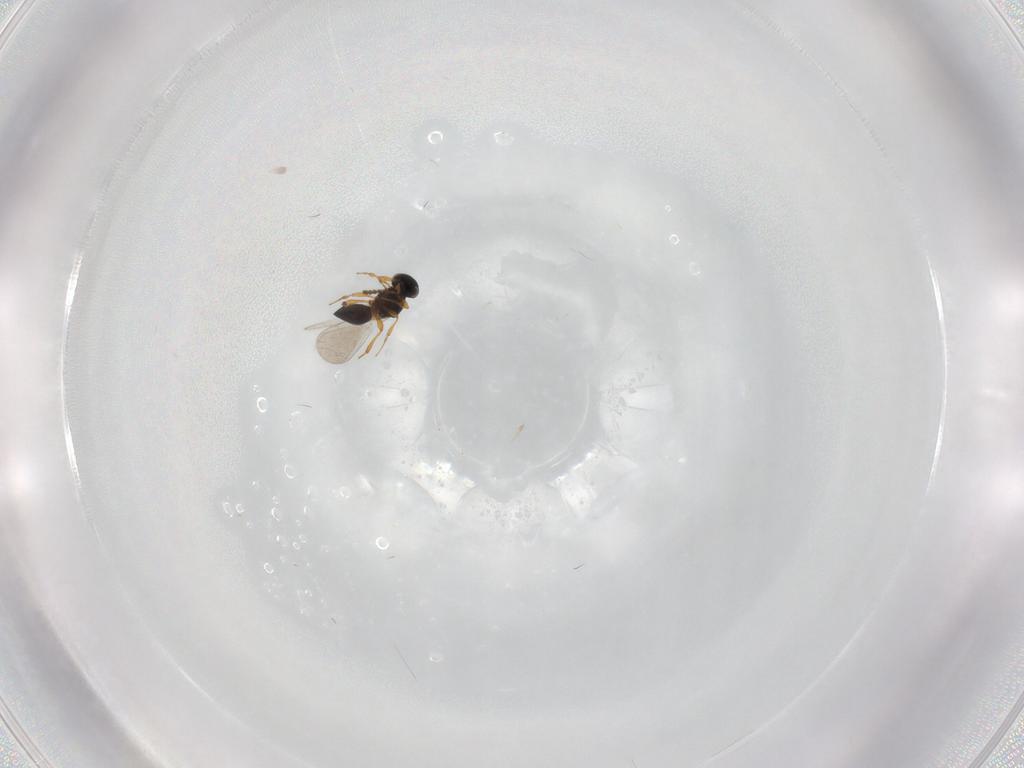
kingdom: Animalia
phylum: Arthropoda
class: Insecta
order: Hymenoptera
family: Platygastridae
